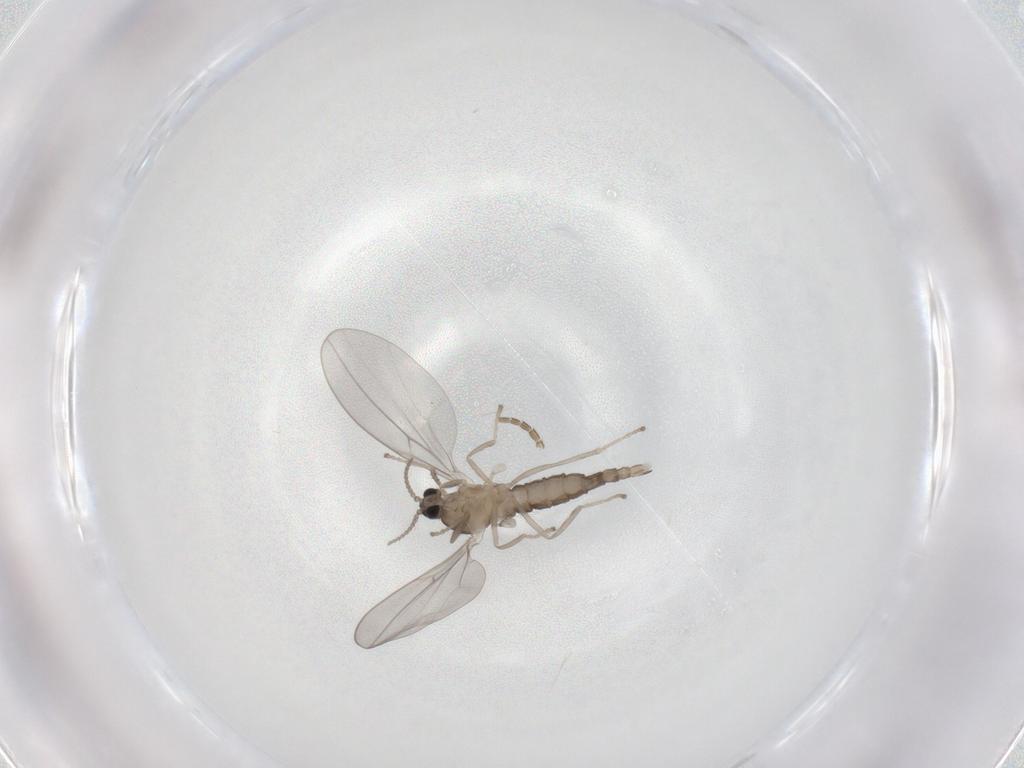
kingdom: Animalia
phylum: Arthropoda
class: Insecta
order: Diptera
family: Cecidomyiidae
